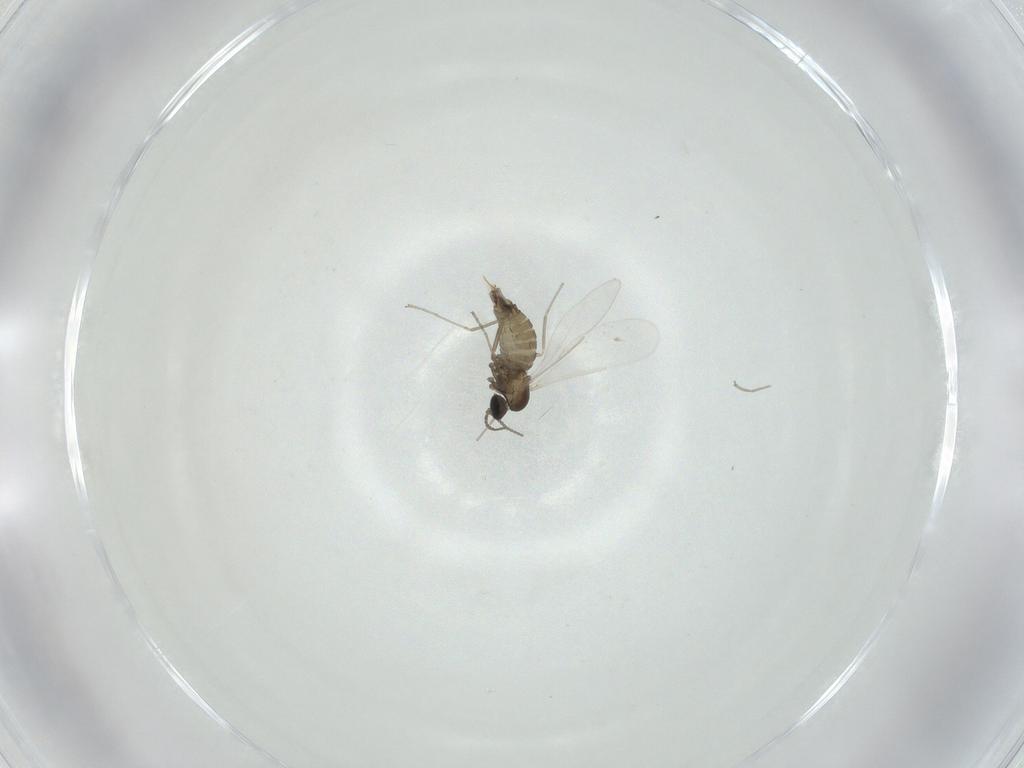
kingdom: Animalia
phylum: Arthropoda
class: Insecta
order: Diptera
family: Cecidomyiidae
